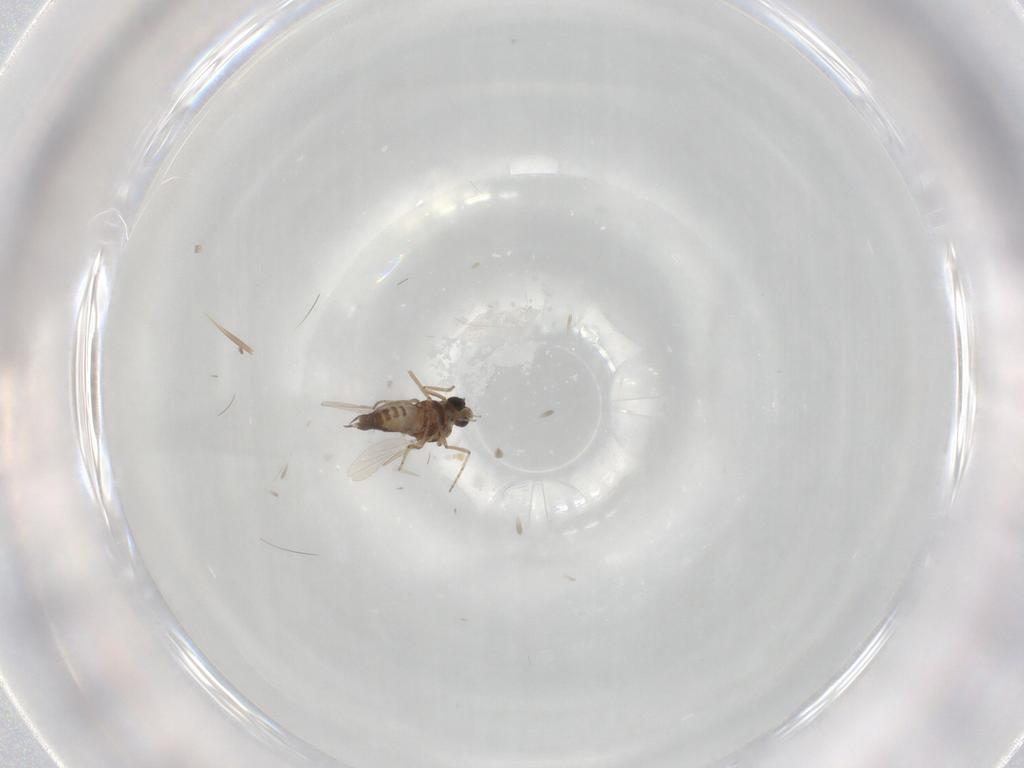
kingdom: Animalia
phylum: Arthropoda
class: Insecta
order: Diptera
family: Ceratopogonidae
